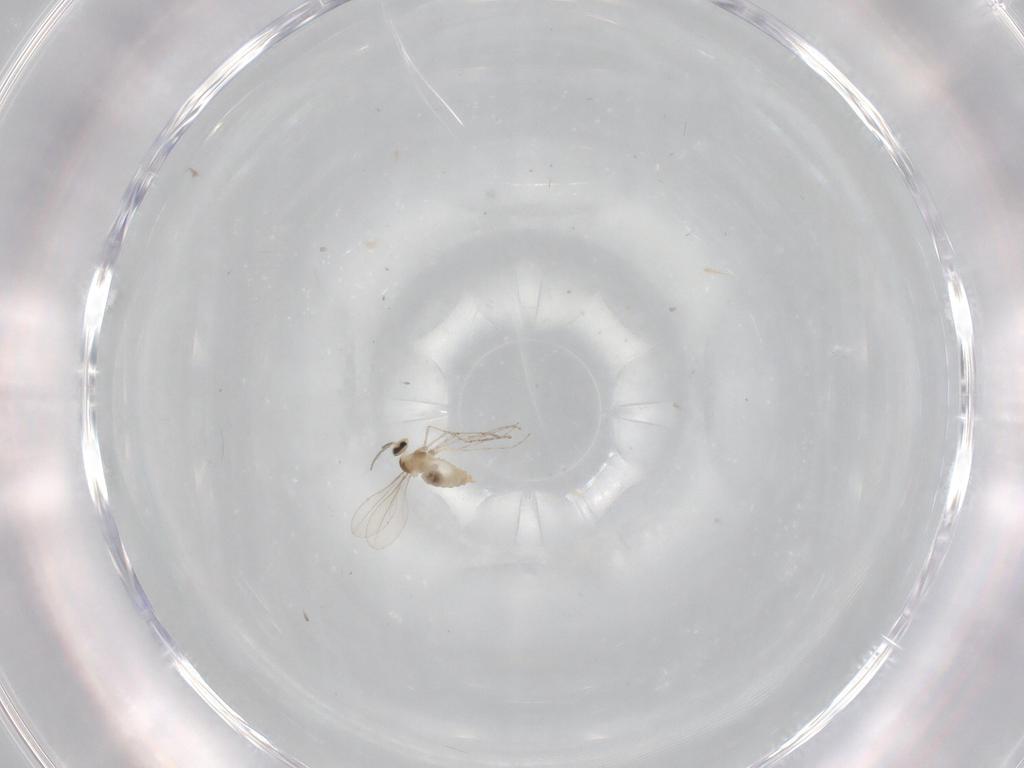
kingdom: Animalia
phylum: Arthropoda
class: Insecta
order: Diptera
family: Cecidomyiidae
